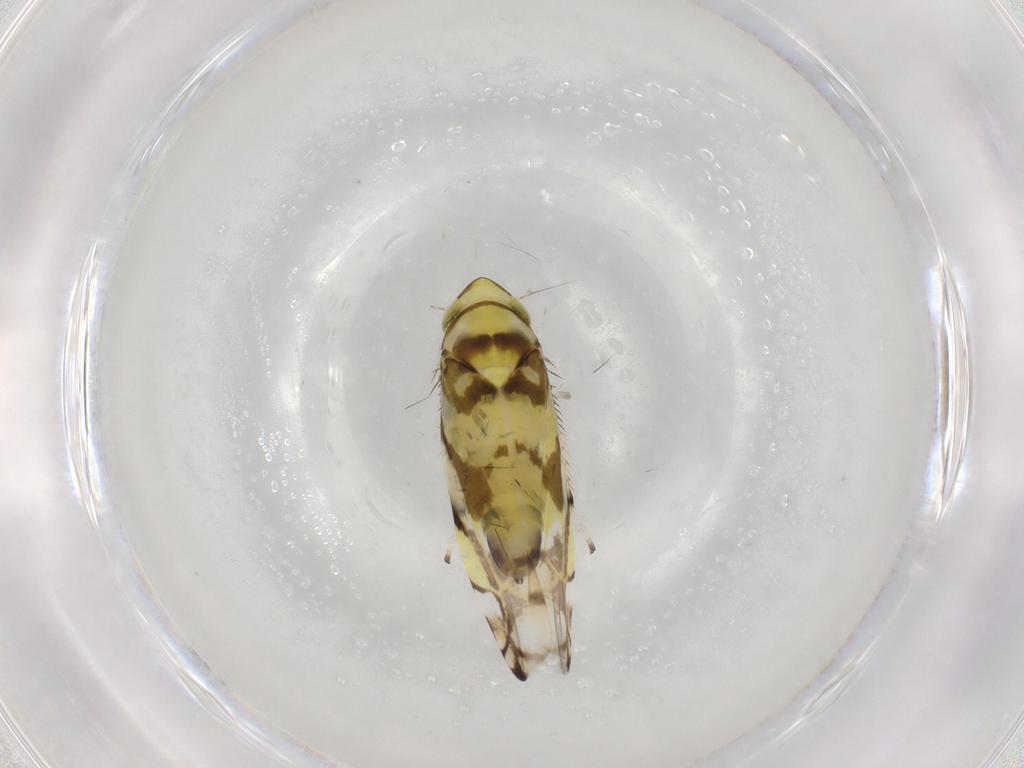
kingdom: Animalia
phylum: Arthropoda
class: Insecta
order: Hemiptera
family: Cicadellidae
